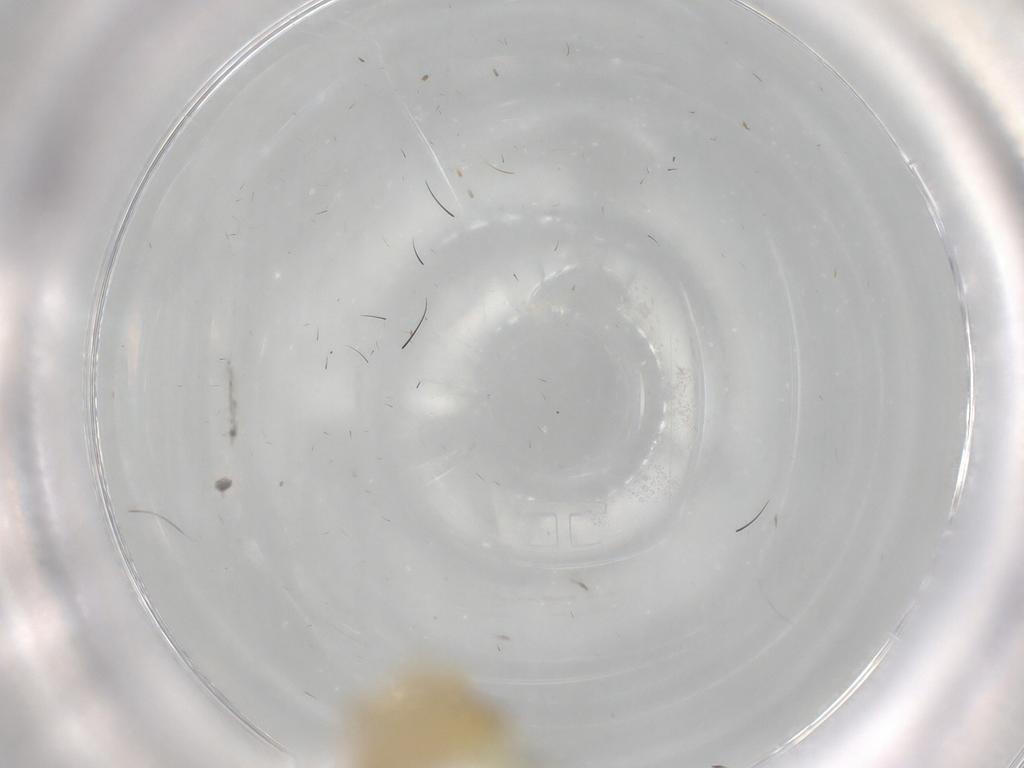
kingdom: Animalia
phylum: Arthropoda
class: Insecta
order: Hemiptera
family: Cicadellidae
